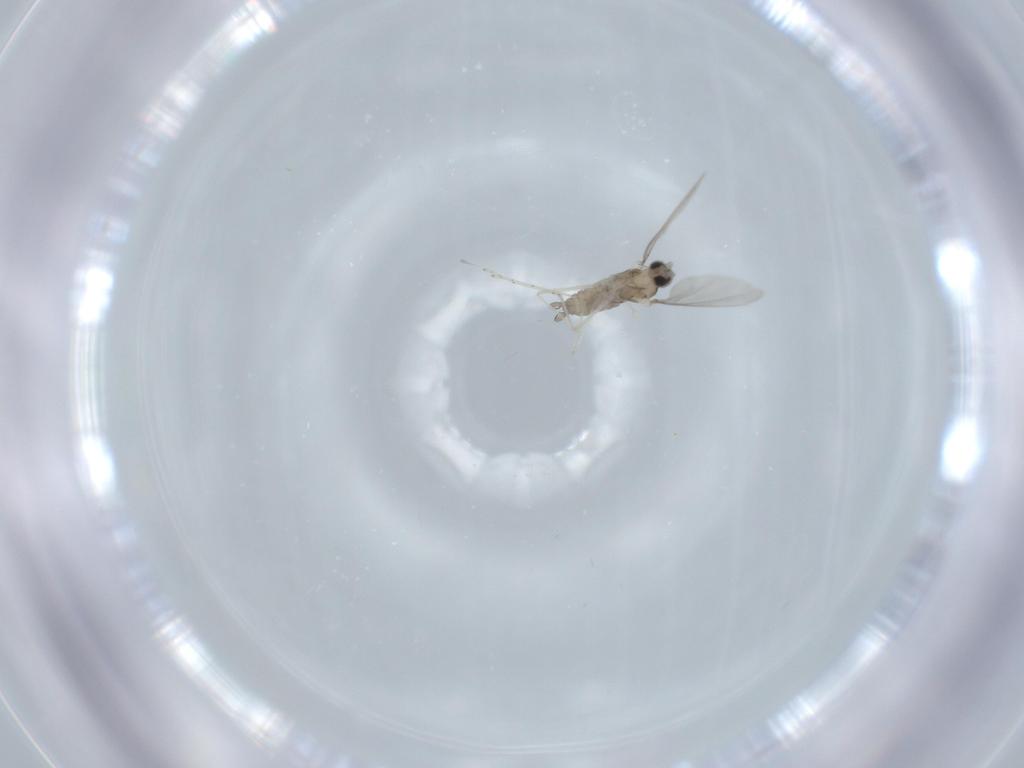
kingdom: Animalia
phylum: Arthropoda
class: Insecta
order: Diptera
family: Cecidomyiidae
